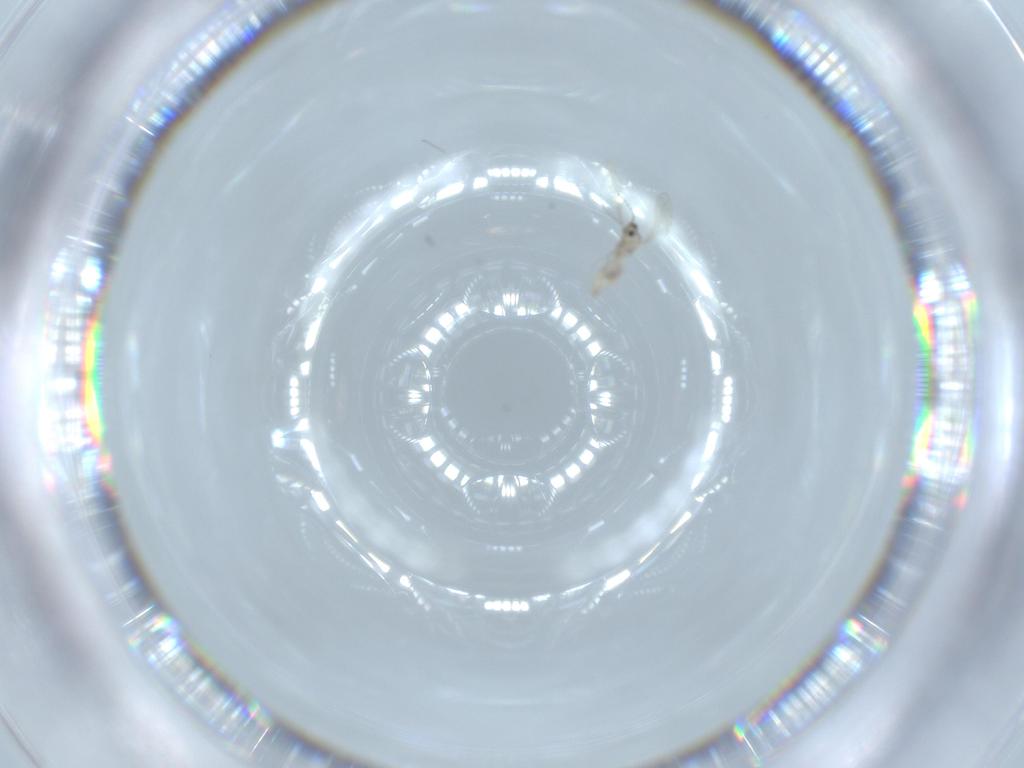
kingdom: Animalia
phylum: Arthropoda
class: Insecta
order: Diptera
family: Cecidomyiidae
